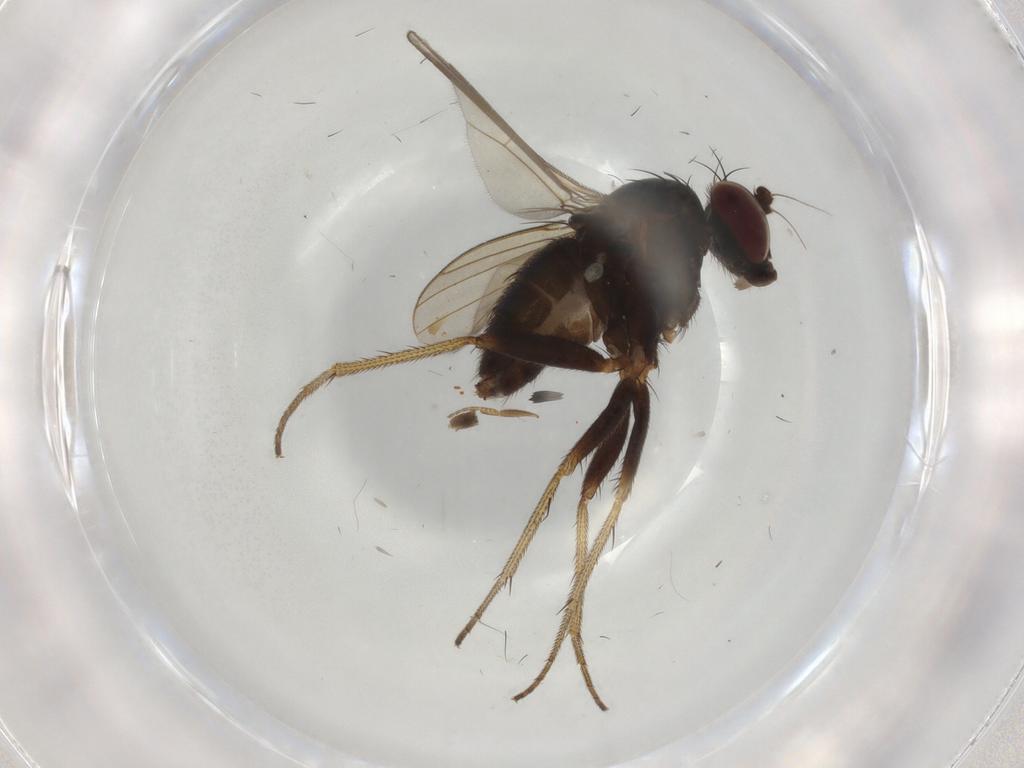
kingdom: Animalia
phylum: Arthropoda
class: Insecta
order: Diptera
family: Dolichopodidae
